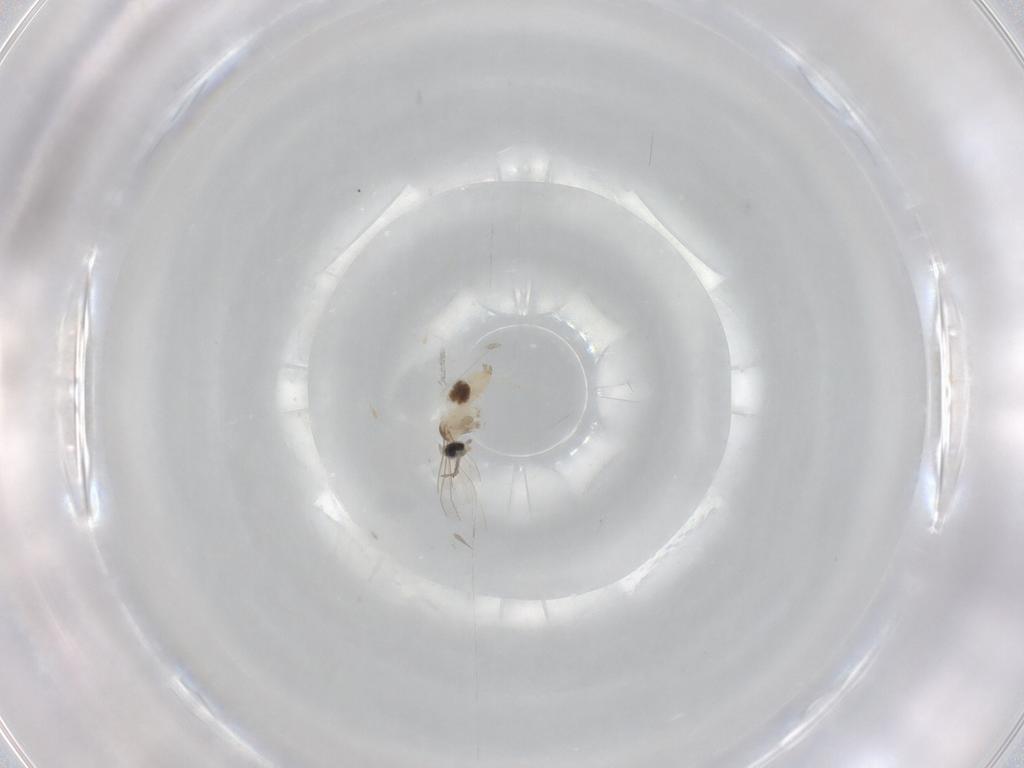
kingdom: Animalia
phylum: Arthropoda
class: Insecta
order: Diptera
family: Cecidomyiidae
